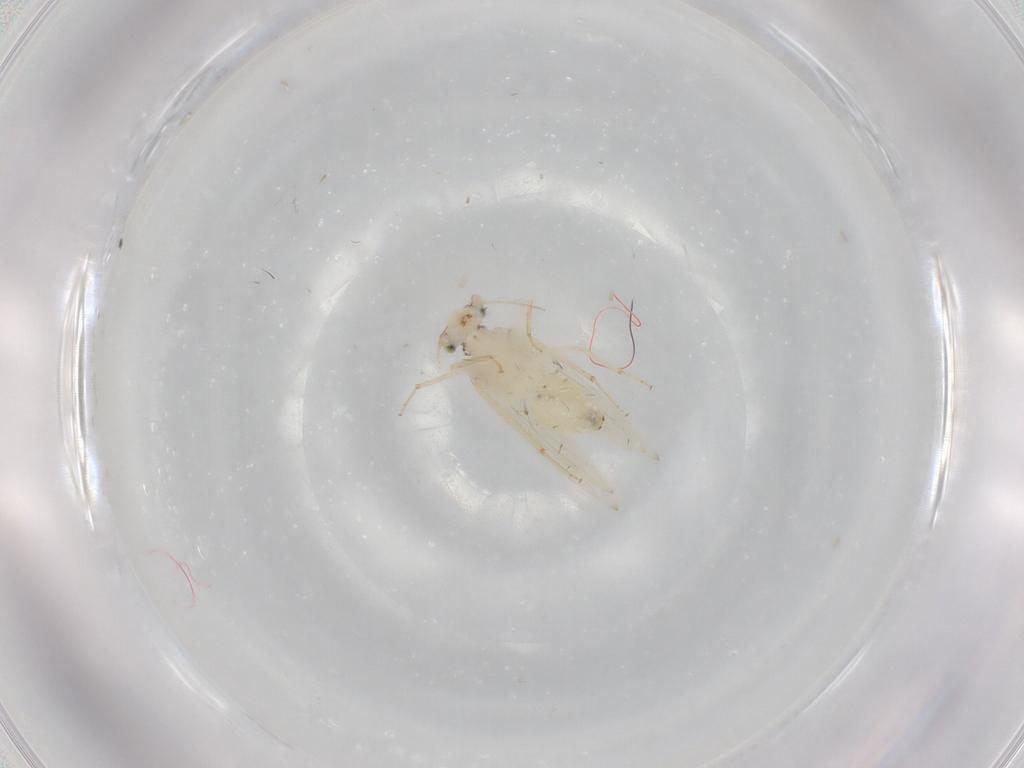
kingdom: Animalia
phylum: Arthropoda
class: Insecta
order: Psocodea
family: Lepidopsocidae
